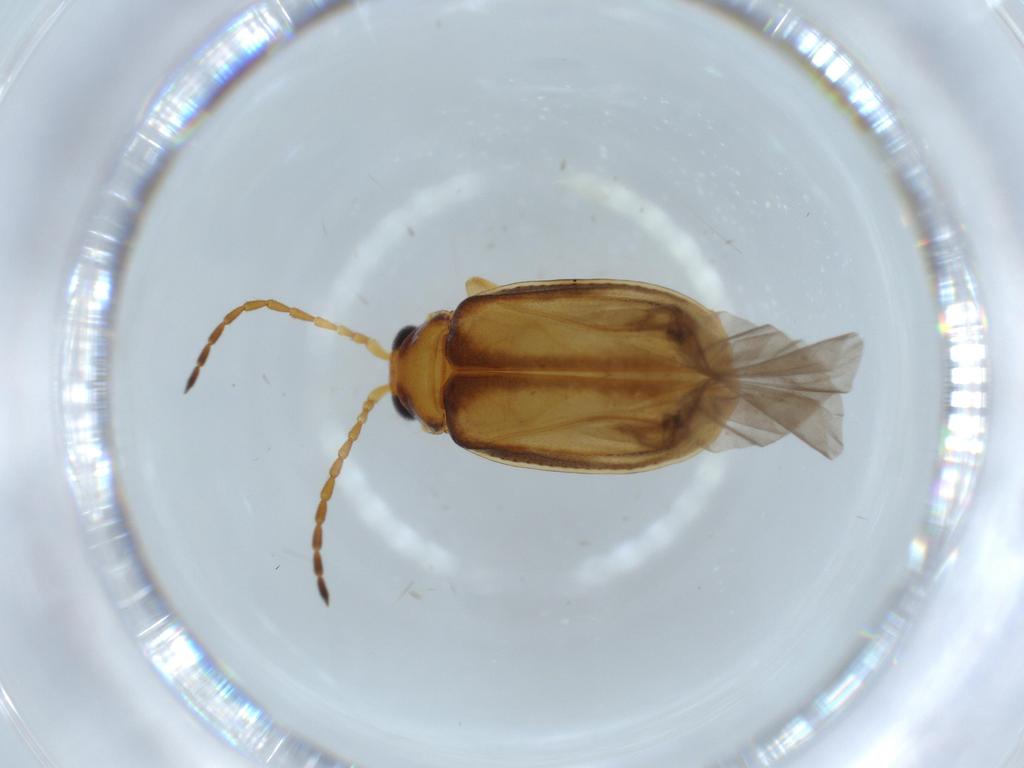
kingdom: Animalia
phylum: Arthropoda
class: Insecta
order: Coleoptera
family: Chrysomelidae
